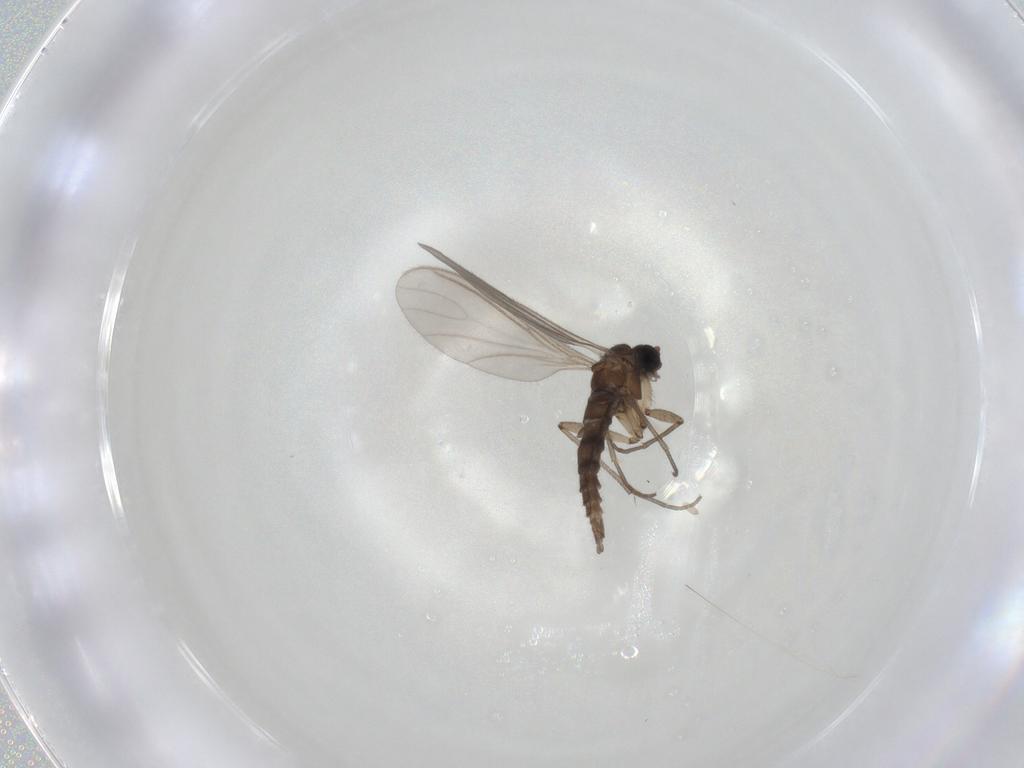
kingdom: Animalia
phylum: Arthropoda
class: Insecta
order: Diptera
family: Sciaridae
